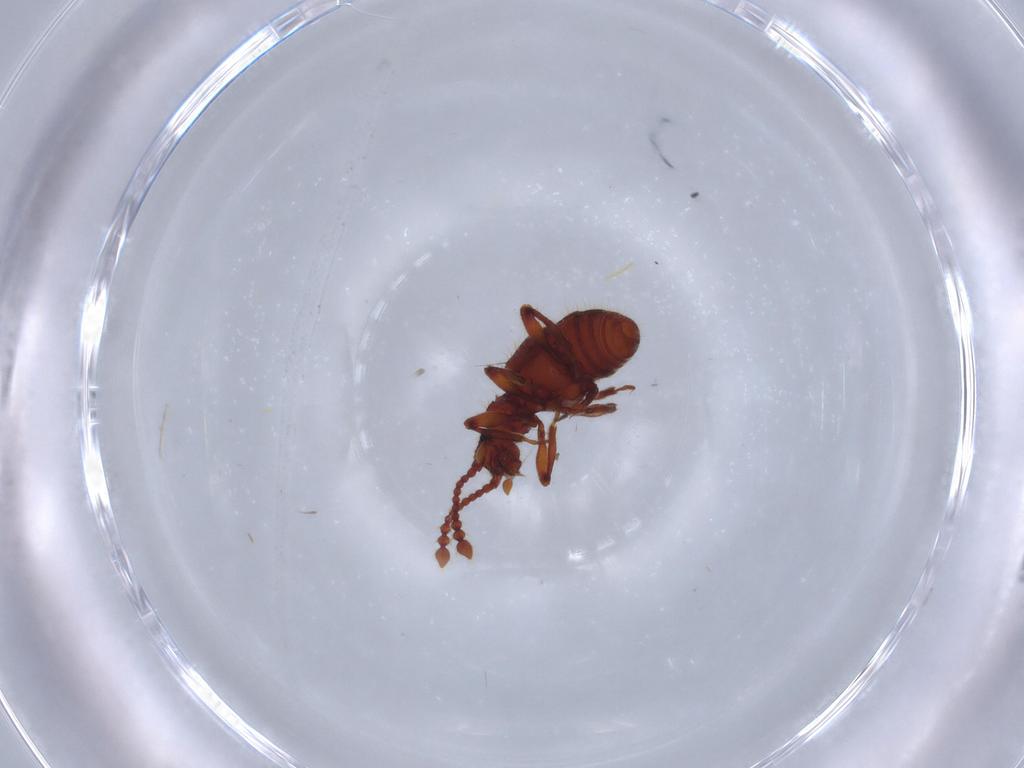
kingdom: Animalia
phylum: Arthropoda
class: Insecta
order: Coleoptera
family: Staphylinidae
